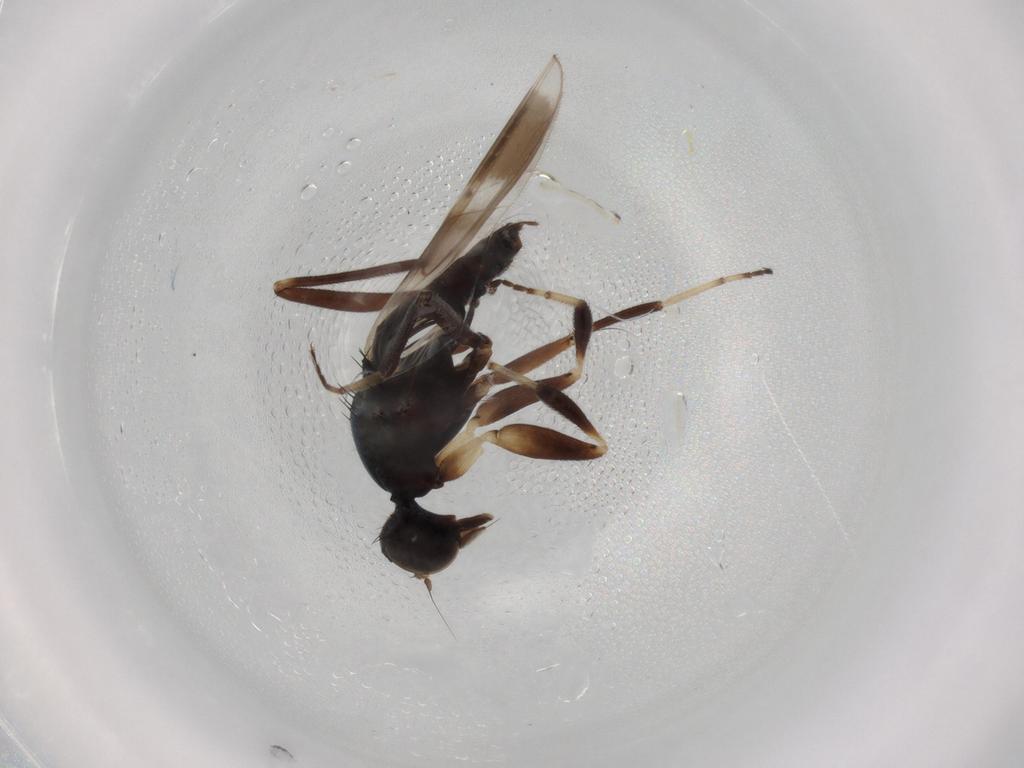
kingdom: Animalia
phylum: Arthropoda
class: Insecta
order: Diptera
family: Hybotidae
